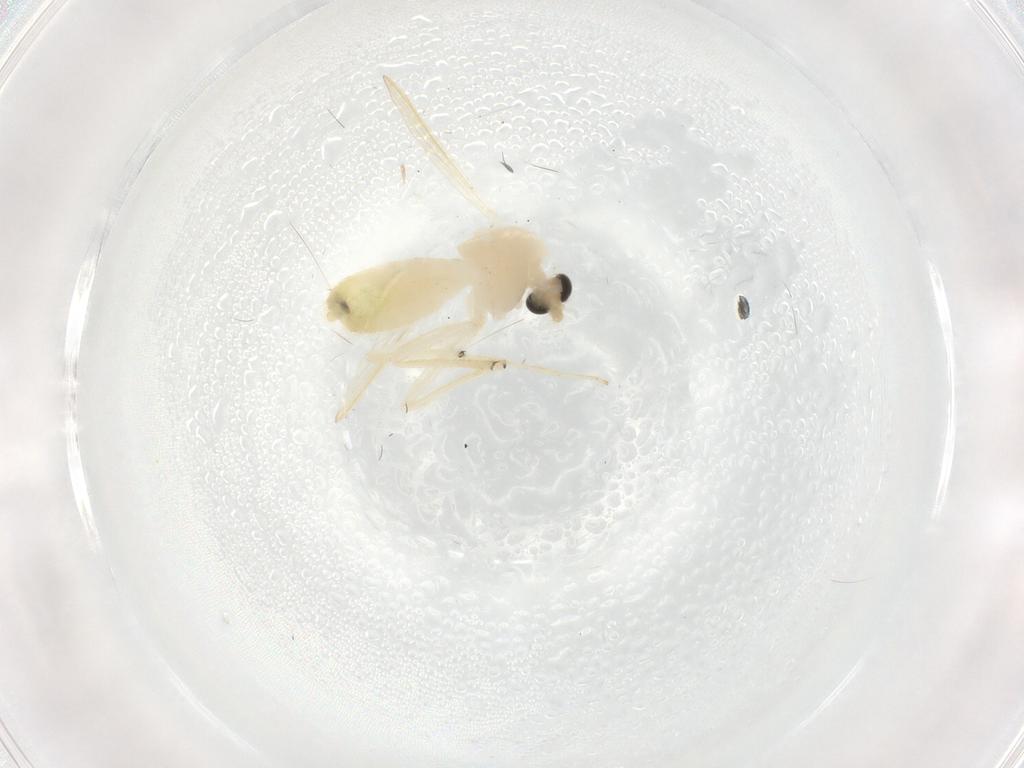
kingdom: Animalia
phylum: Arthropoda
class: Insecta
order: Diptera
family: Chironomidae
